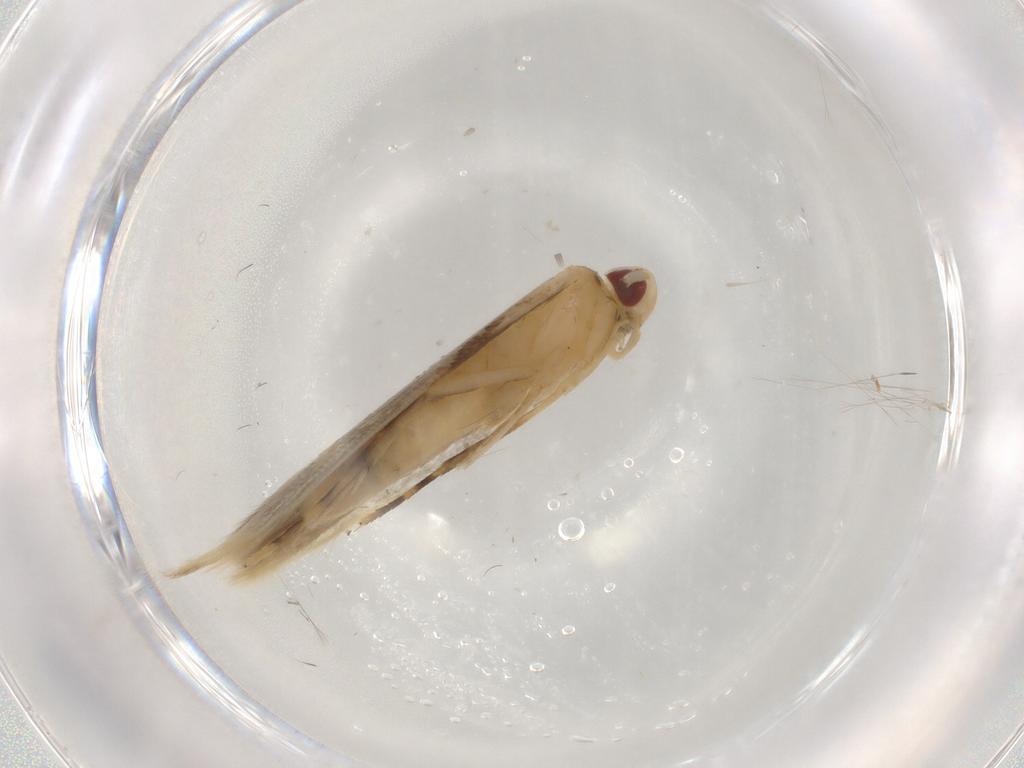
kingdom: Animalia
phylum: Arthropoda
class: Insecta
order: Lepidoptera
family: Cosmopterigidae
